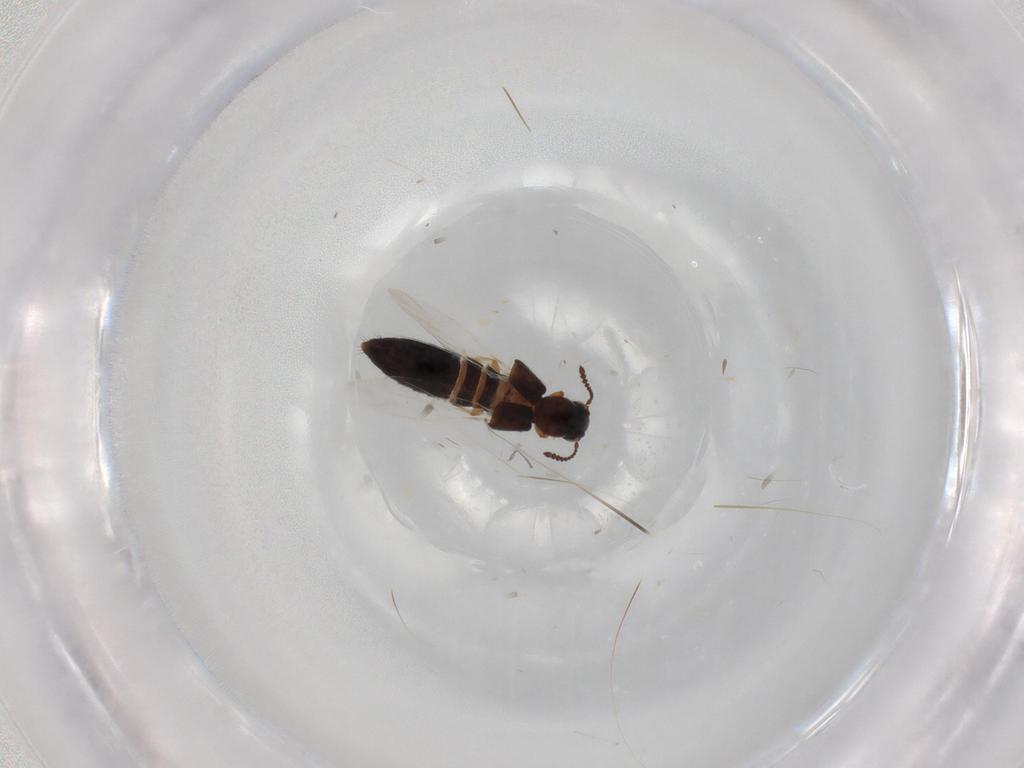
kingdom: Animalia
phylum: Arthropoda
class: Insecta
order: Coleoptera
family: Staphylinidae
